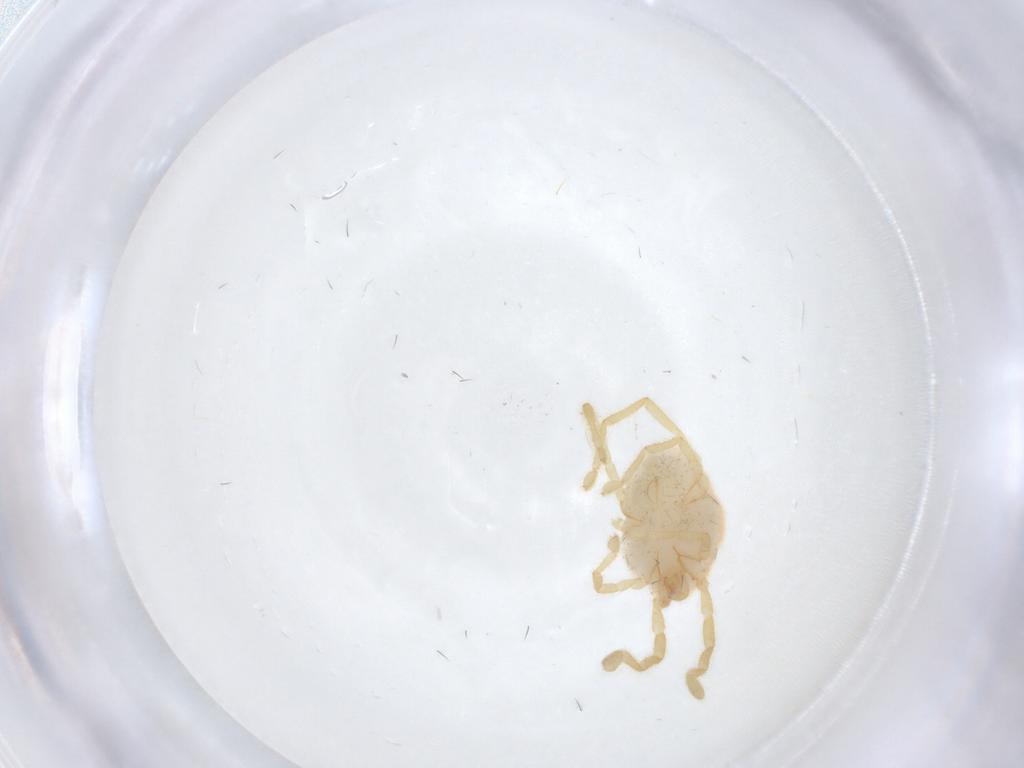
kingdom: Animalia
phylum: Arthropoda
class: Arachnida
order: Trombidiformes
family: Erythraeidae
